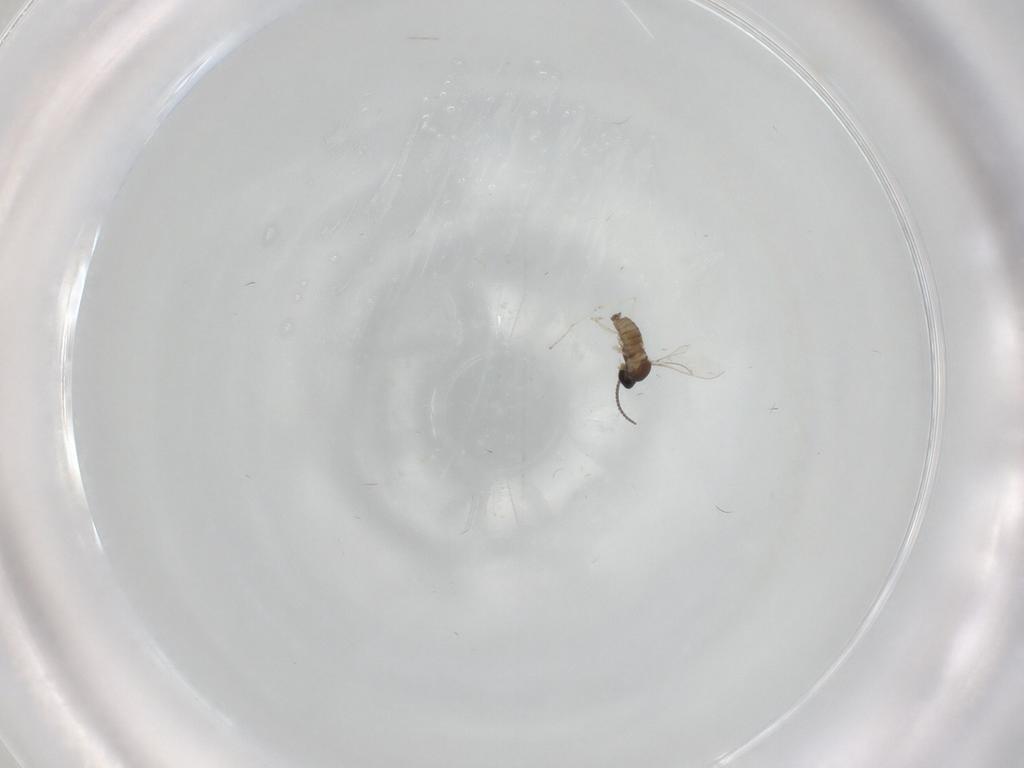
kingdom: Animalia
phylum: Arthropoda
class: Insecta
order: Diptera
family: Cecidomyiidae
